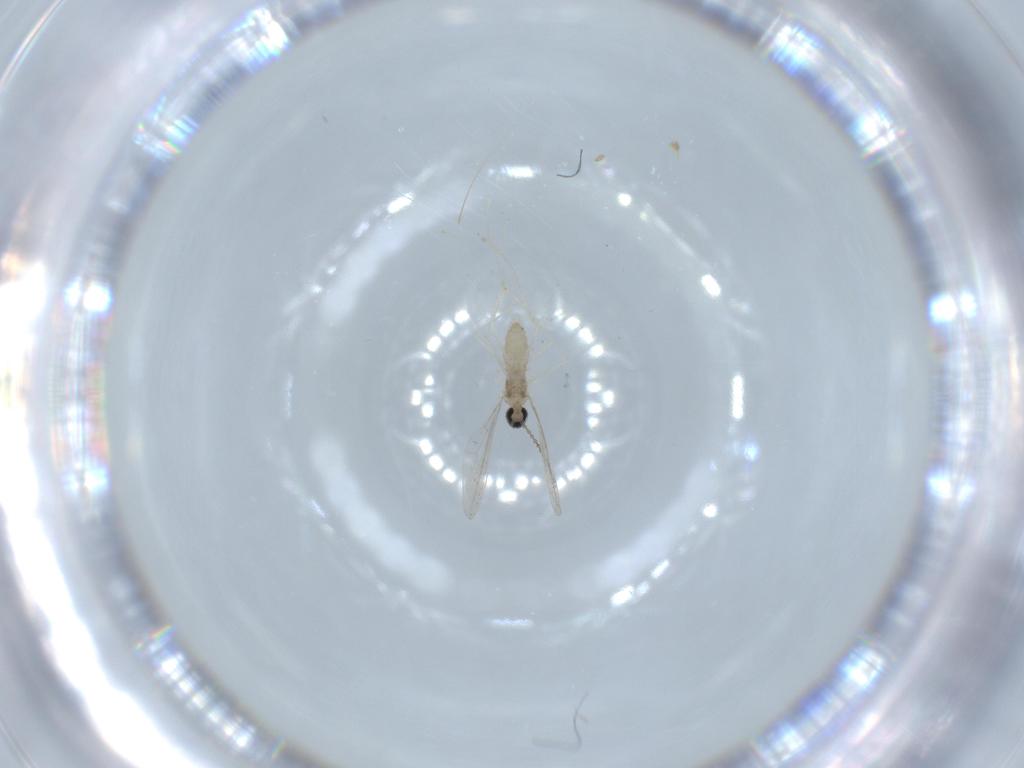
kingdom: Animalia
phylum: Arthropoda
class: Insecta
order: Diptera
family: Cecidomyiidae
